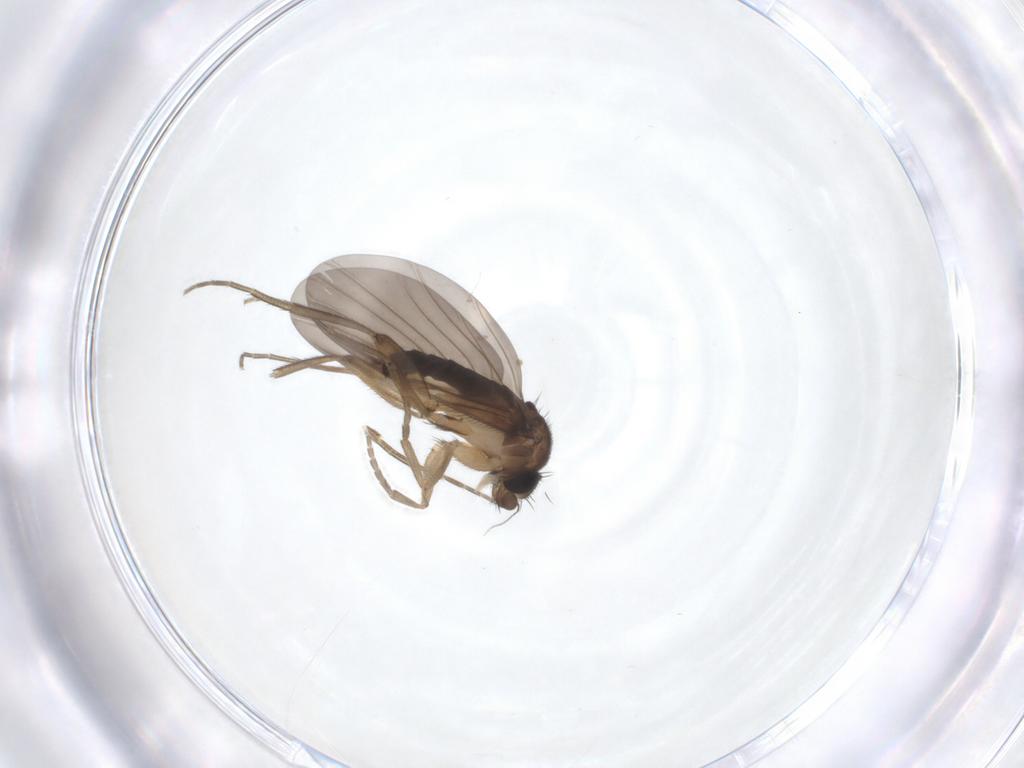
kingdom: Animalia
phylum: Arthropoda
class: Insecta
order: Diptera
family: Phoridae
